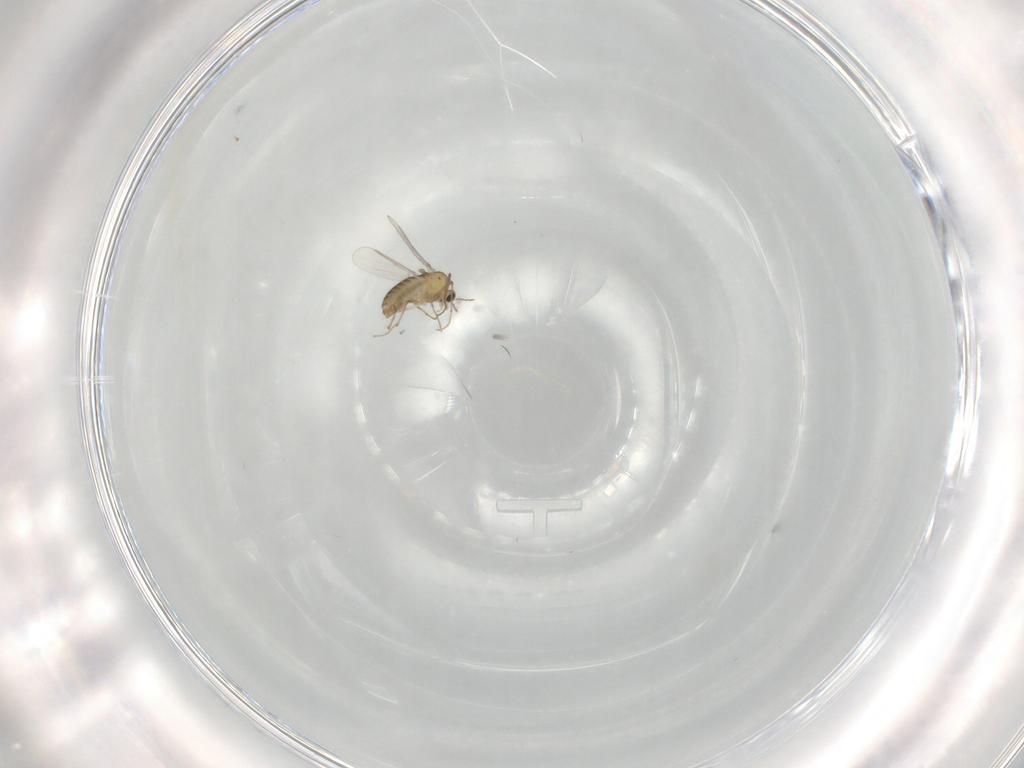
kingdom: Animalia
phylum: Arthropoda
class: Insecta
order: Diptera
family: Chironomidae
